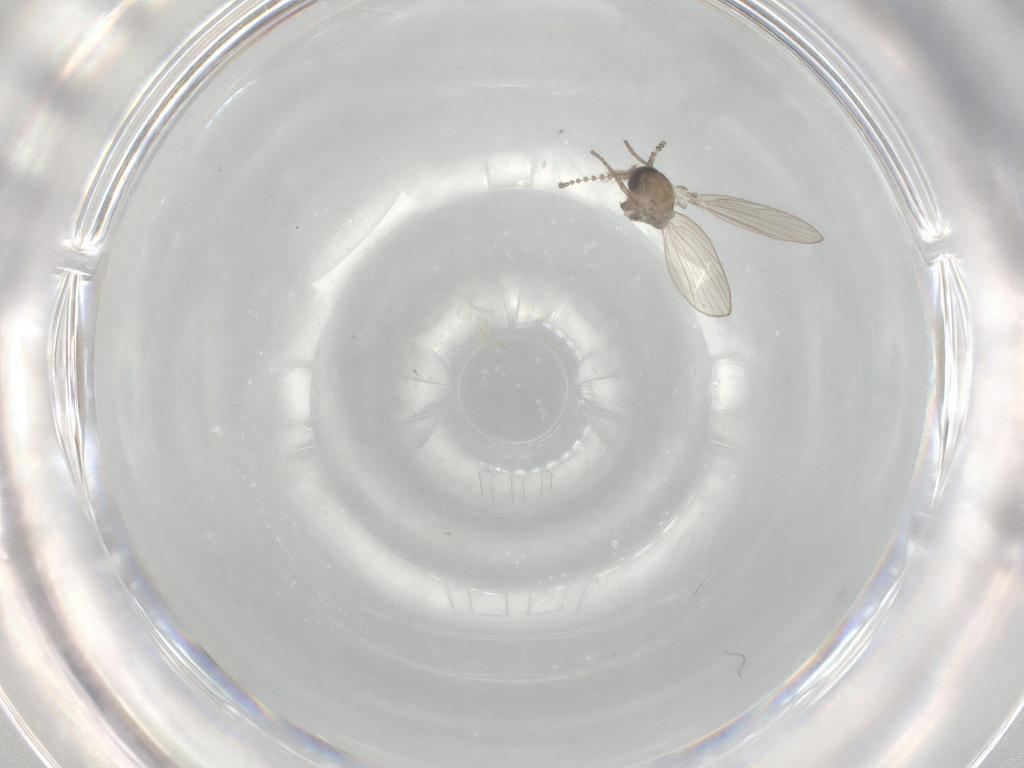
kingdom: Animalia
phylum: Arthropoda
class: Insecta
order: Diptera
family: Psychodidae
